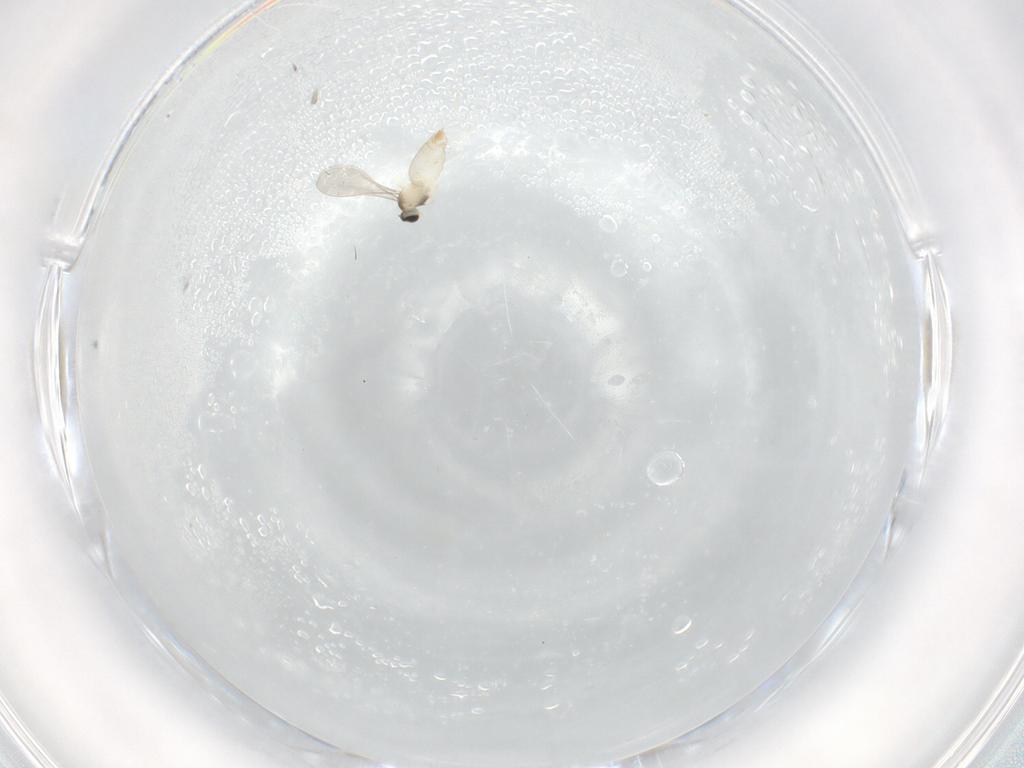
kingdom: Animalia
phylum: Arthropoda
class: Insecta
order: Diptera
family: Cecidomyiidae
